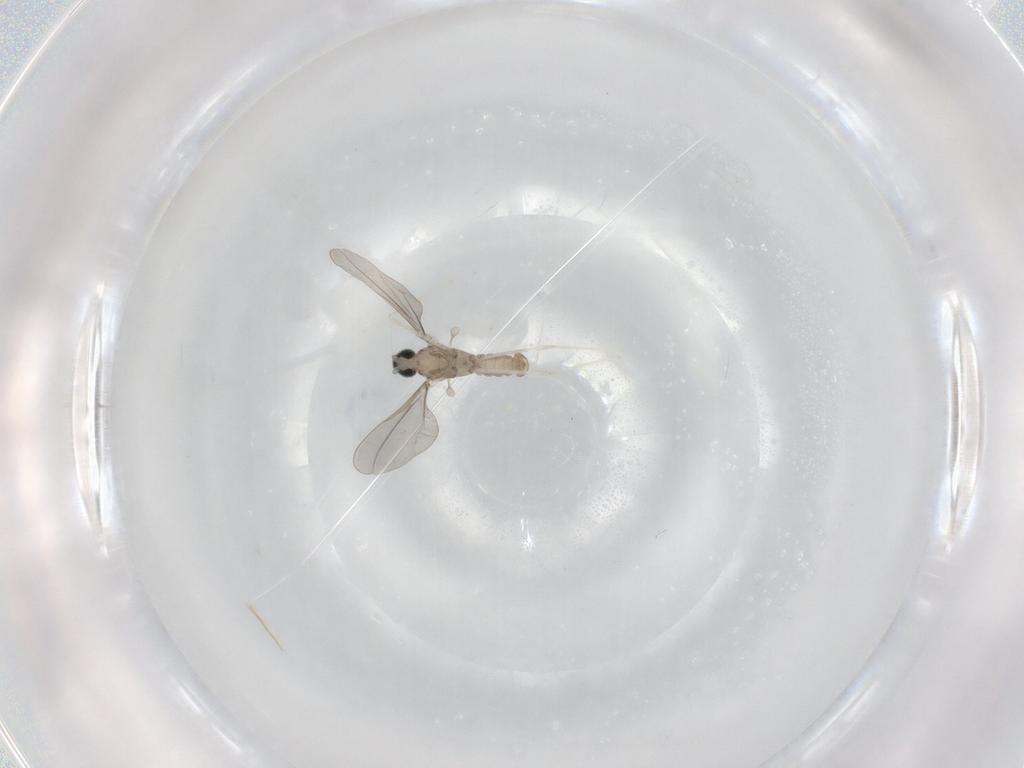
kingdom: Animalia
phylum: Arthropoda
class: Insecta
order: Diptera
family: Cecidomyiidae
